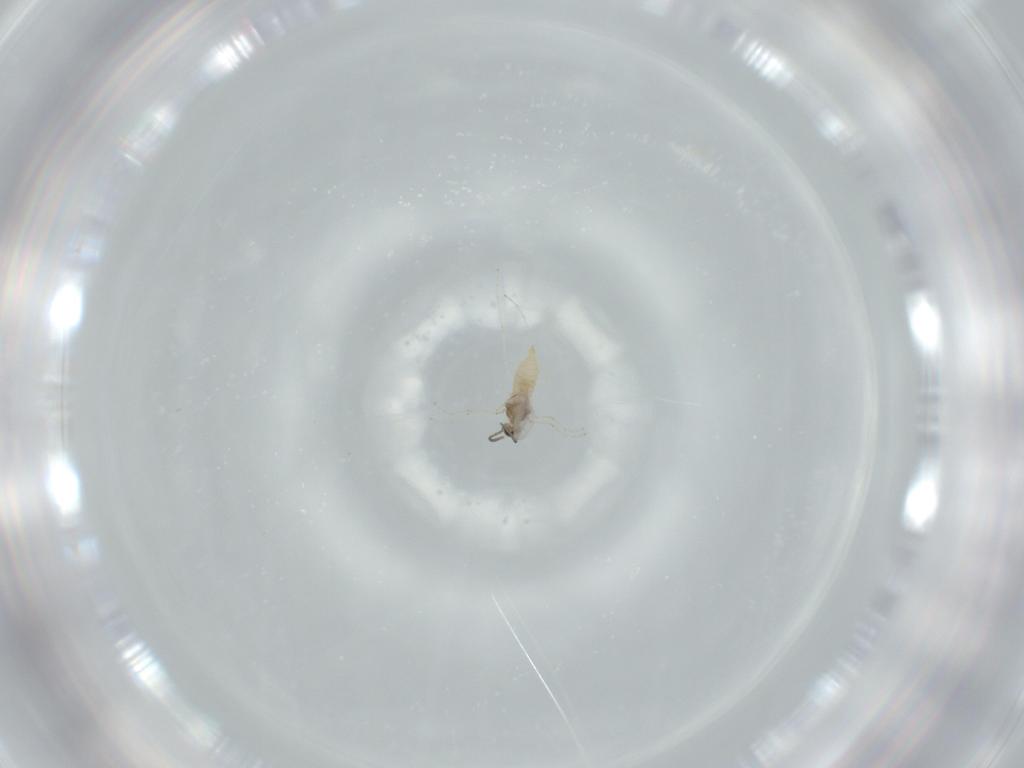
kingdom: Animalia
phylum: Arthropoda
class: Insecta
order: Diptera
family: Cecidomyiidae
